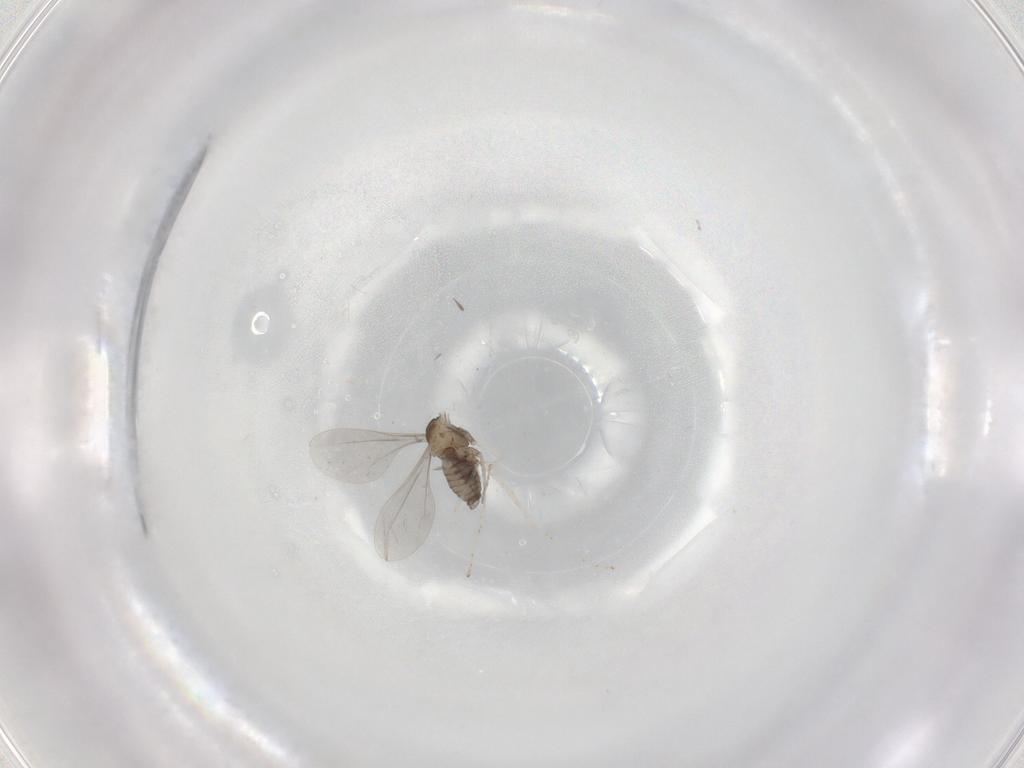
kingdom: Animalia
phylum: Arthropoda
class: Insecta
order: Diptera
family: Cecidomyiidae
